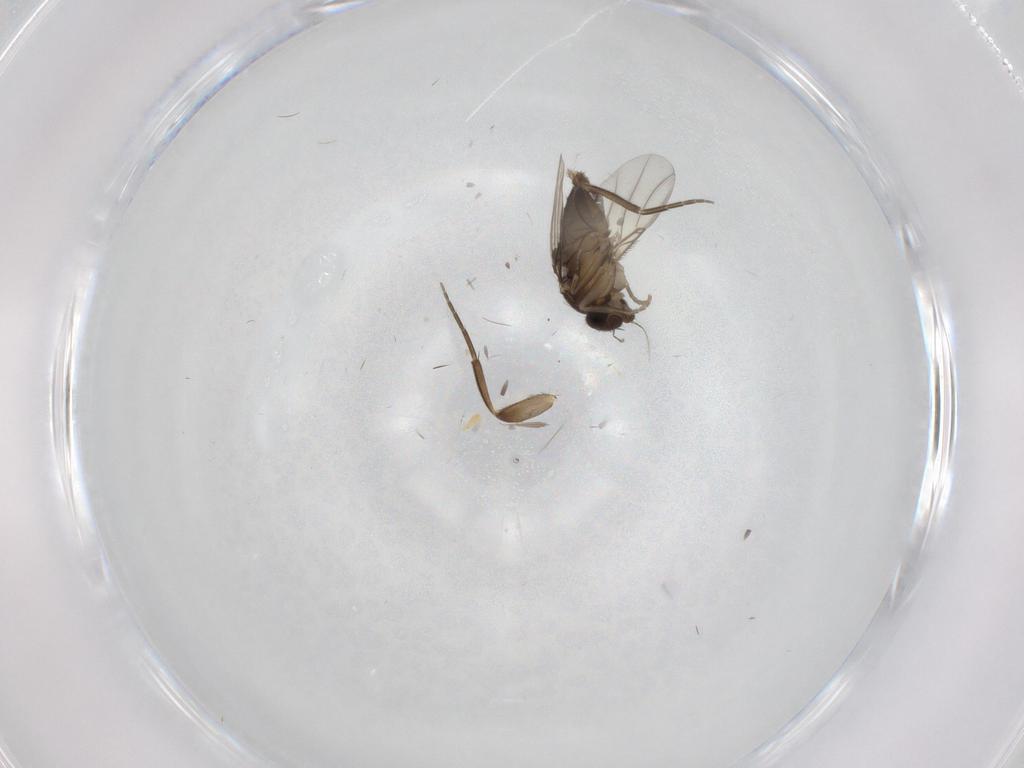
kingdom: Animalia
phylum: Arthropoda
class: Insecta
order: Diptera
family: Phoridae
